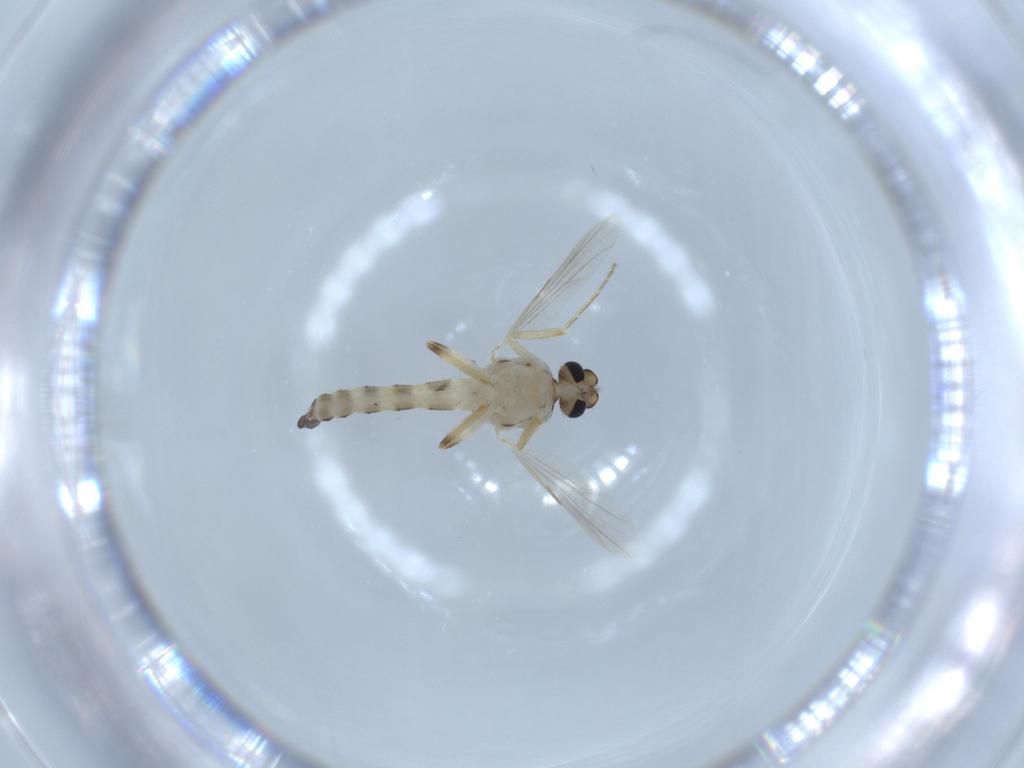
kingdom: Animalia
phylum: Arthropoda
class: Insecta
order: Diptera
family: Ceratopogonidae
